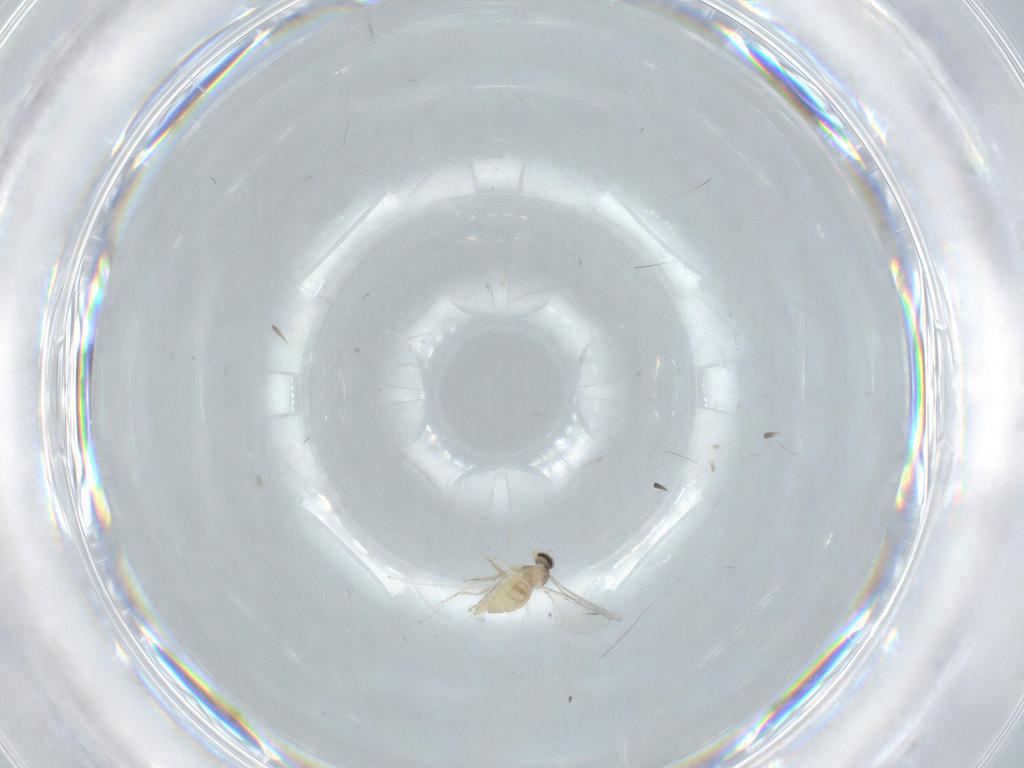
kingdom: Animalia
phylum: Arthropoda
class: Insecta
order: Diptera
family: Cecidomyiidae
